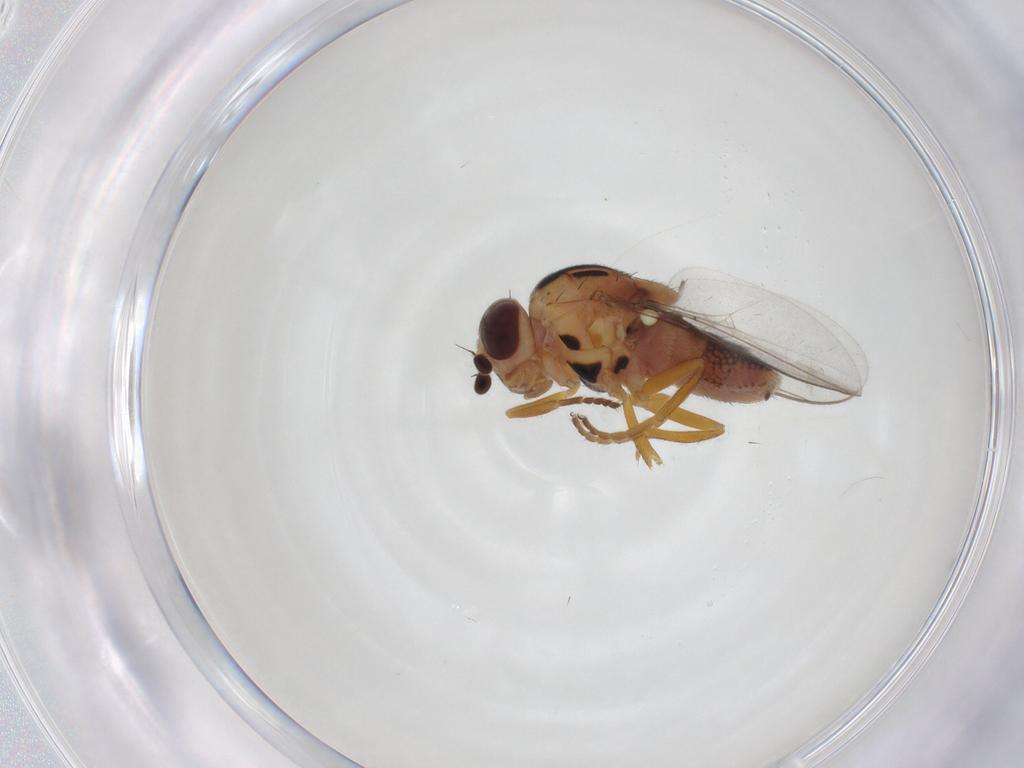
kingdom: Animalia
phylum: Arthropoda
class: Insecta
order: Diptera
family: Chloropidae
